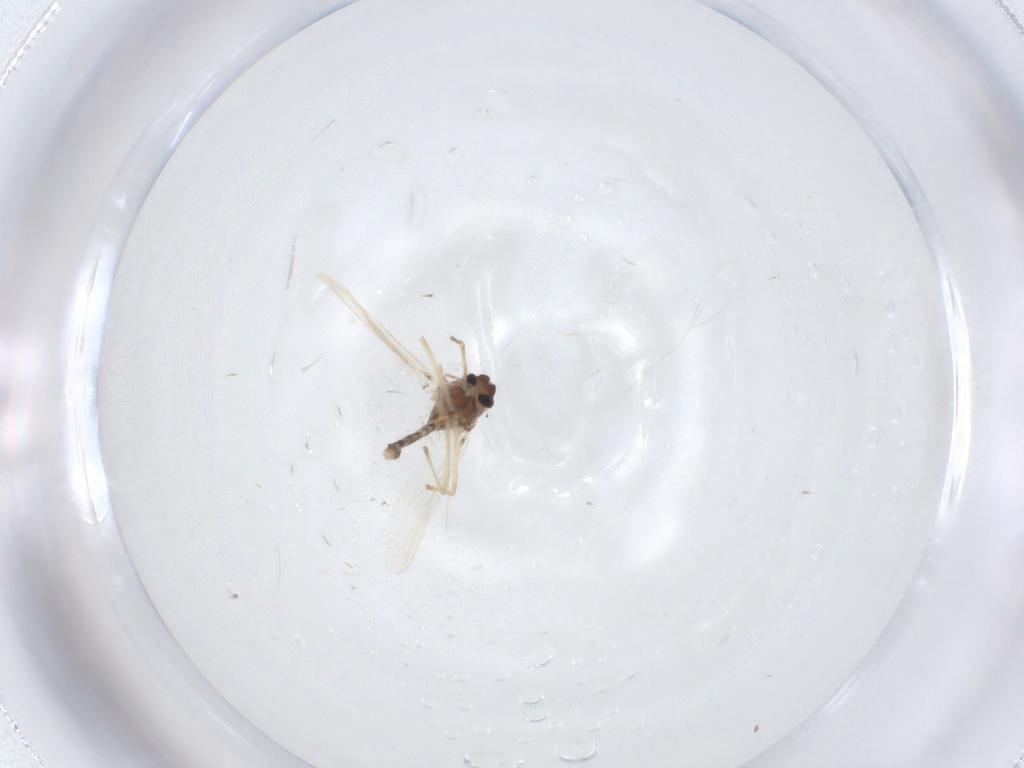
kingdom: Animalia
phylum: Arthropoda
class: Insecta
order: Diptera
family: Chironomidae
